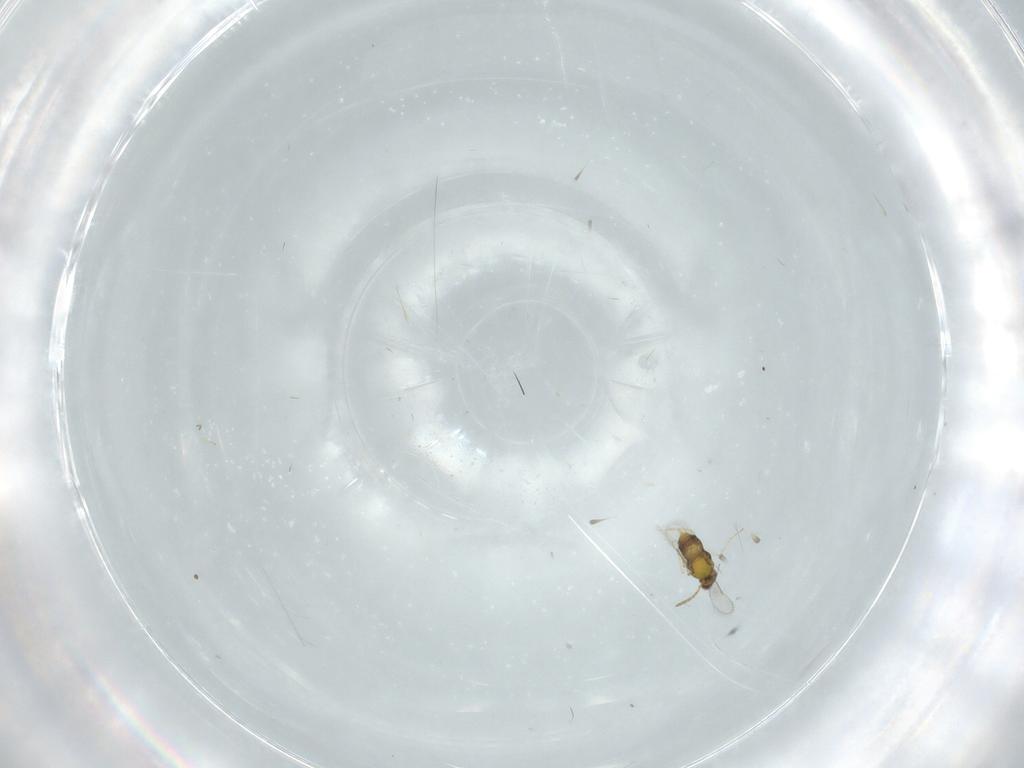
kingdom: Animalia
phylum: Arthropoda
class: Insecta
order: Hymenoptera
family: Aphelinidae
